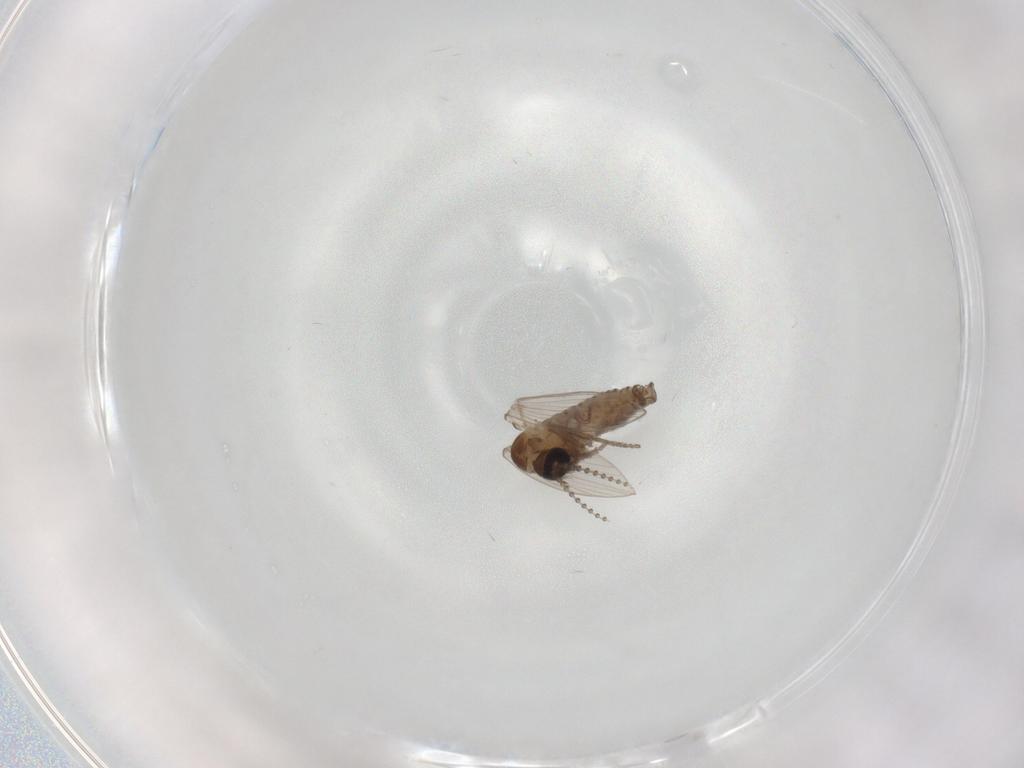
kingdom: Animalia
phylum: Arthropoda
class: Insecta
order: Diptera
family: Psychodidae
